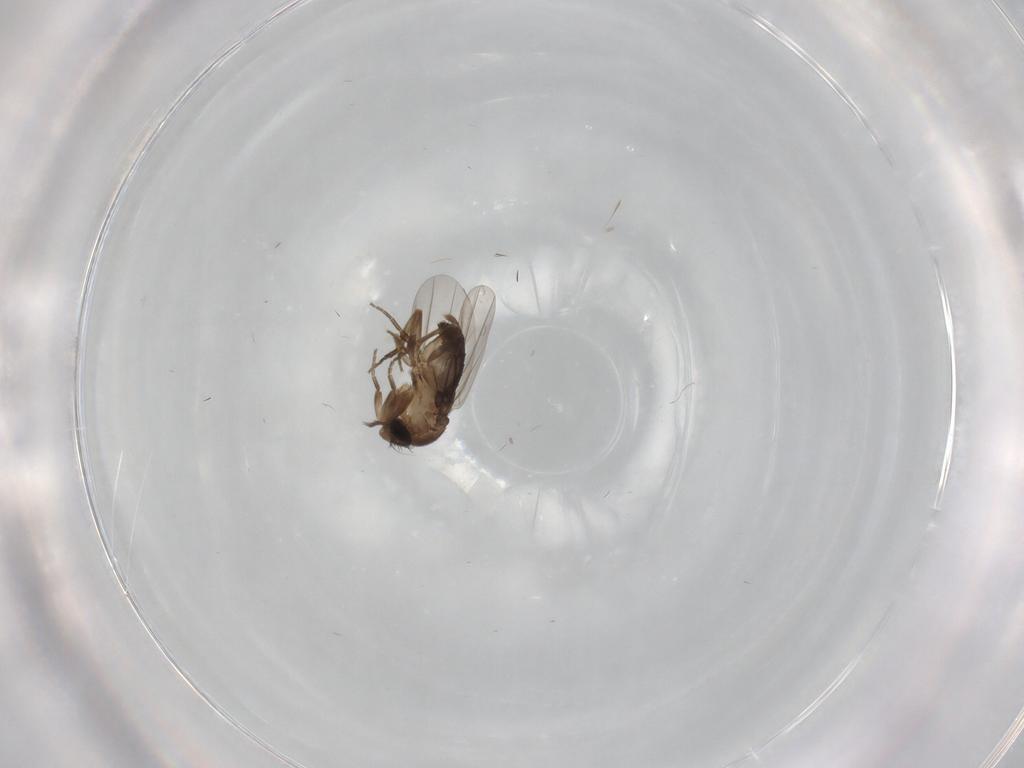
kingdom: Animalia
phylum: Arthropoda
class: Insecta
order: Diptera
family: Phoridae
